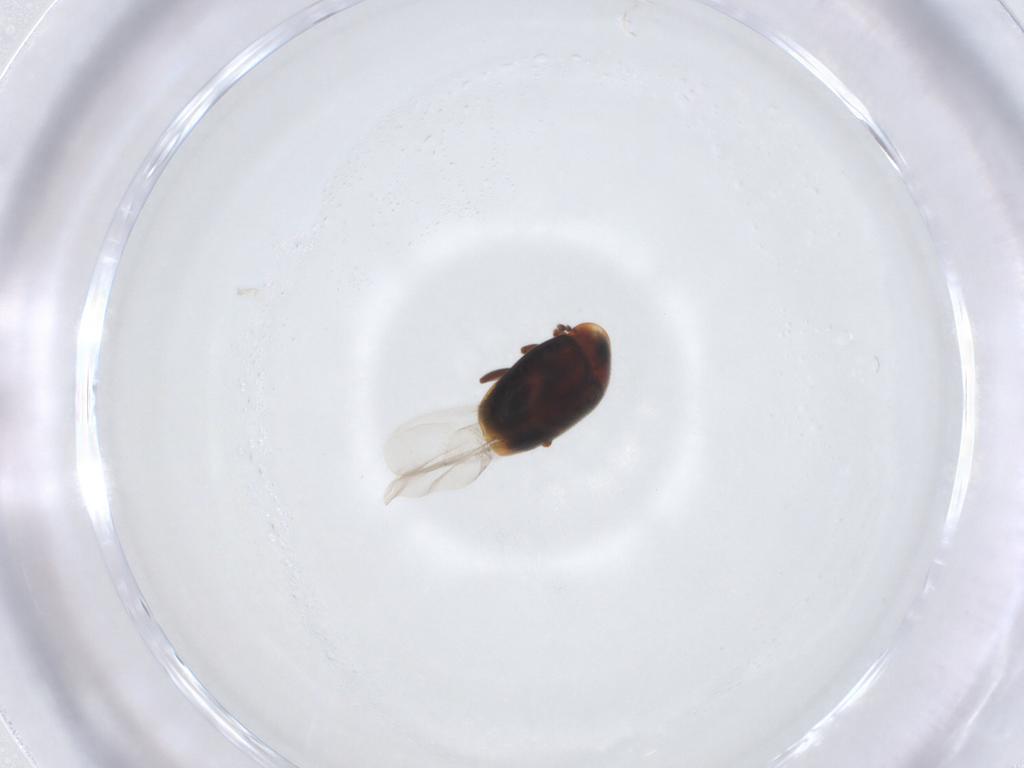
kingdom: Animalia
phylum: Arthropoda
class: Insecta
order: Coleoptera
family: Corylophidae
